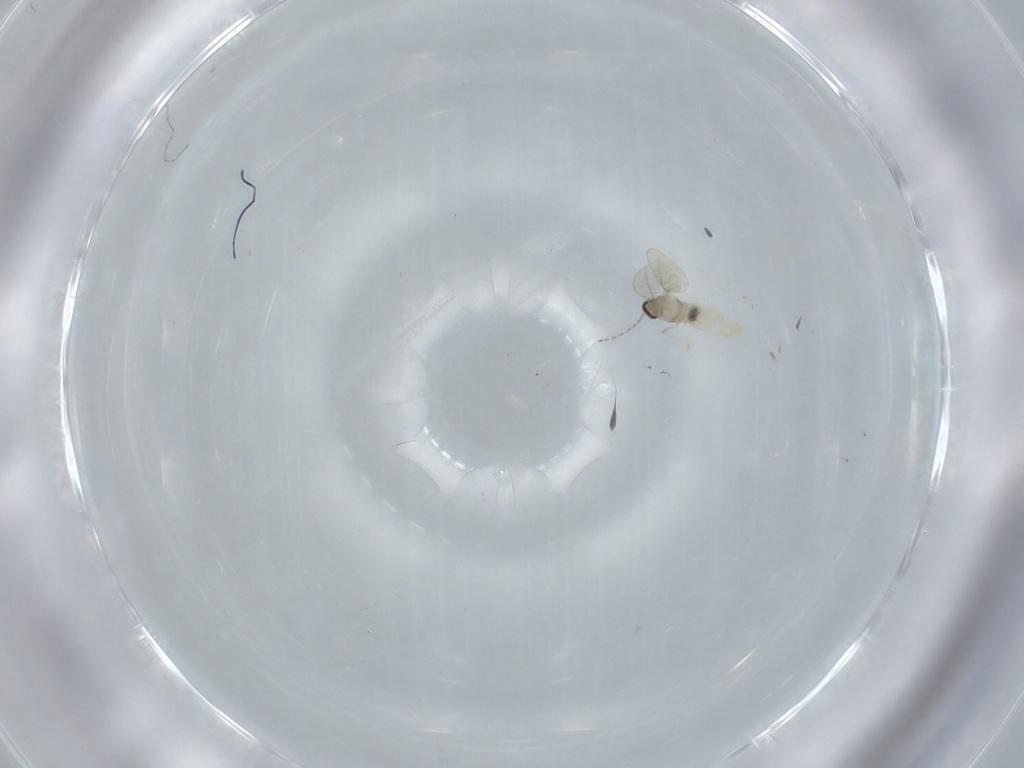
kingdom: Animalia
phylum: Arthropoda
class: Insecta
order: Diptera
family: Cecidomyiidae
